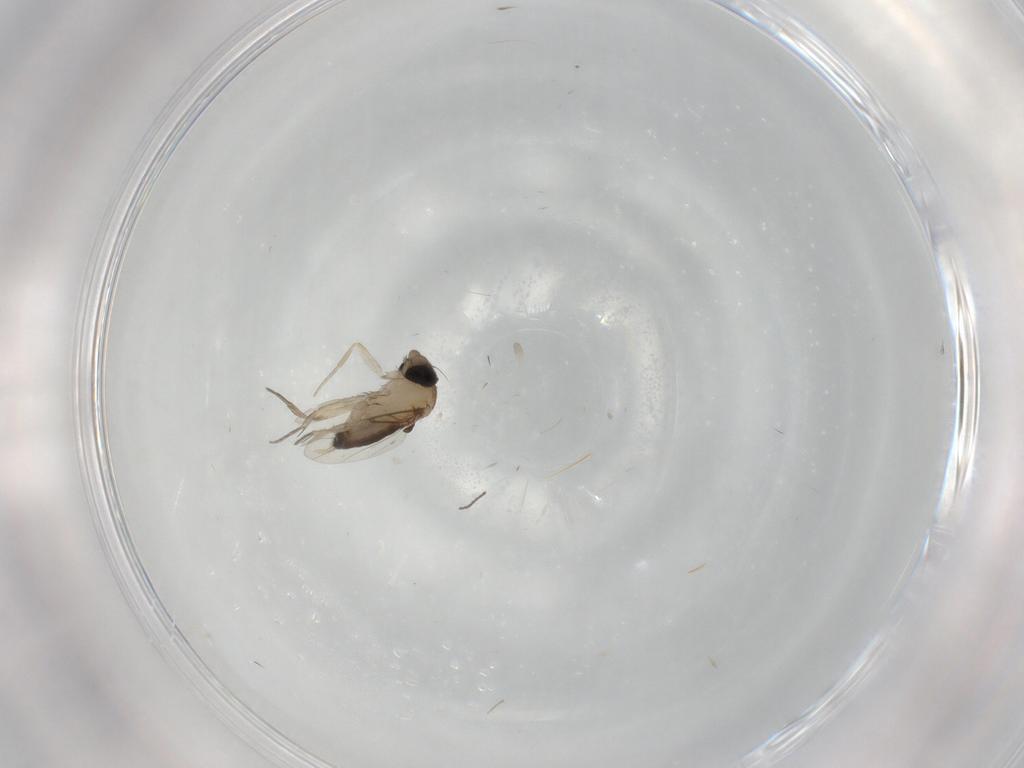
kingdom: Animalia
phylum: Arthropoda
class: Insecta
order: Diptera
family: Phoridae
